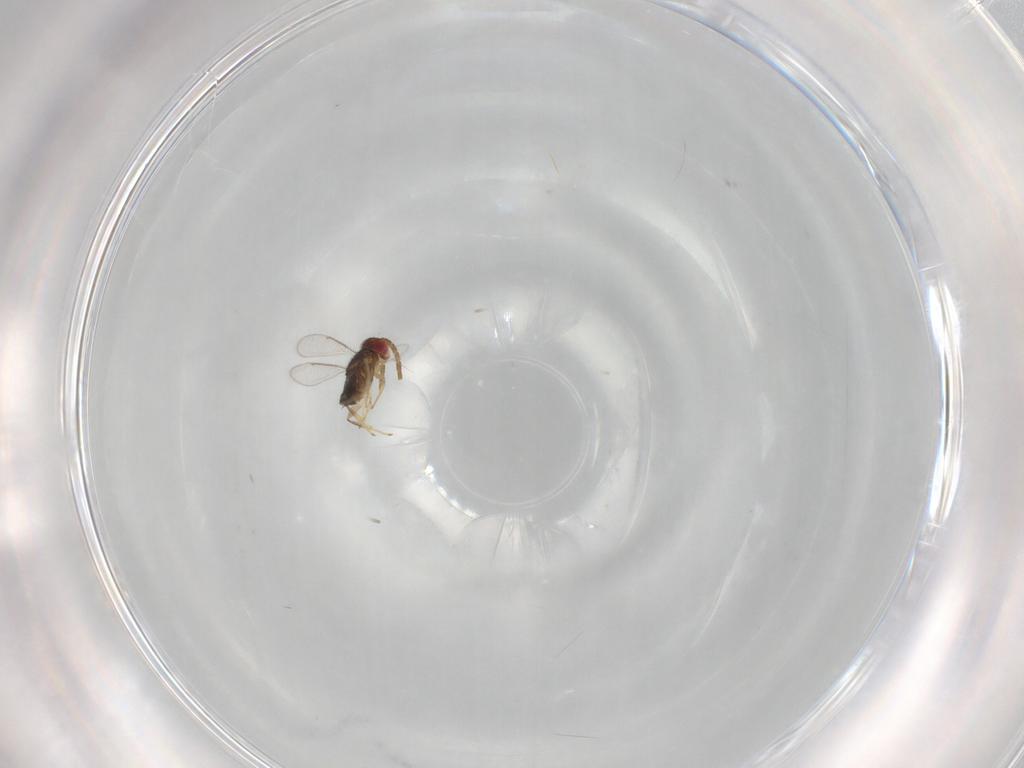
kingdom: Animalia
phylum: Arthropoda
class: Insecta
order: Hymenoptera
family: Aphelinidae
